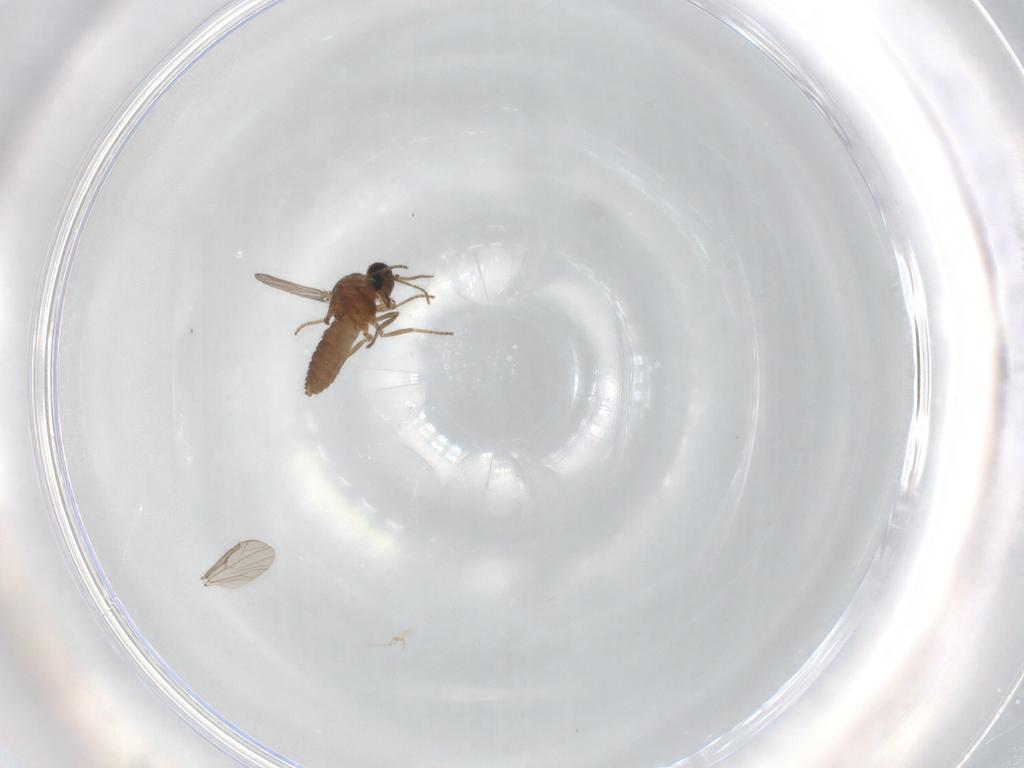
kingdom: Animalia
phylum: Arthropoda
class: Insecta
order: Diptera
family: Ceratopogonidae
